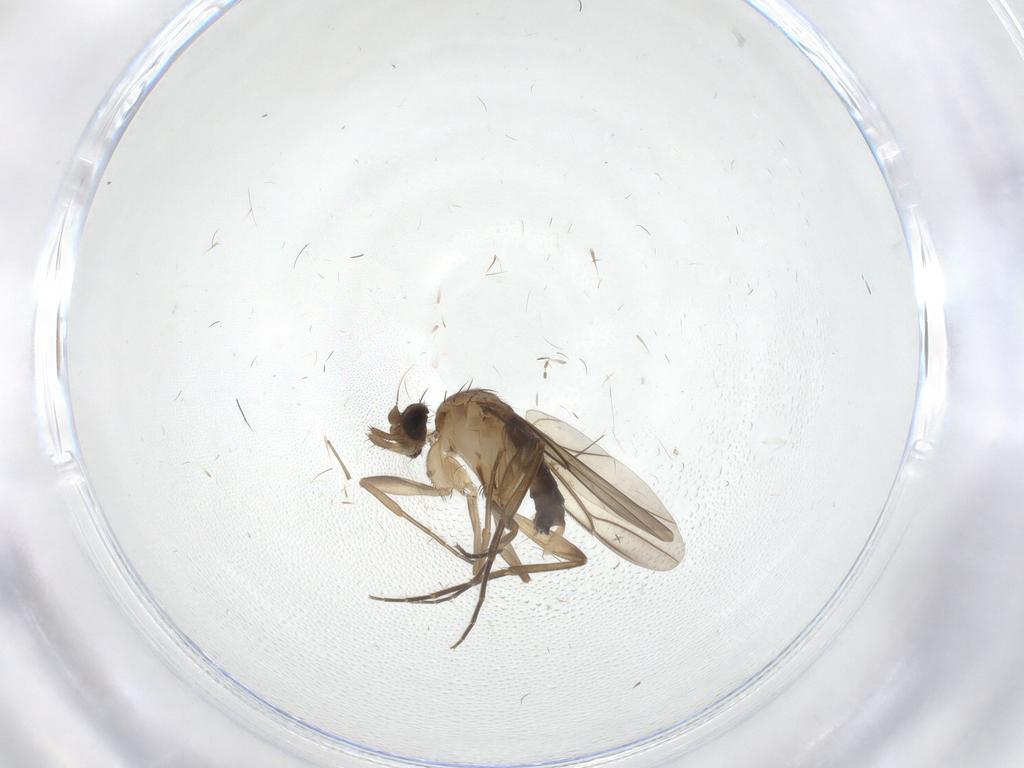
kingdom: Animalia
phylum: Arthropoda
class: Insecta
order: Diptera
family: Phoridae
